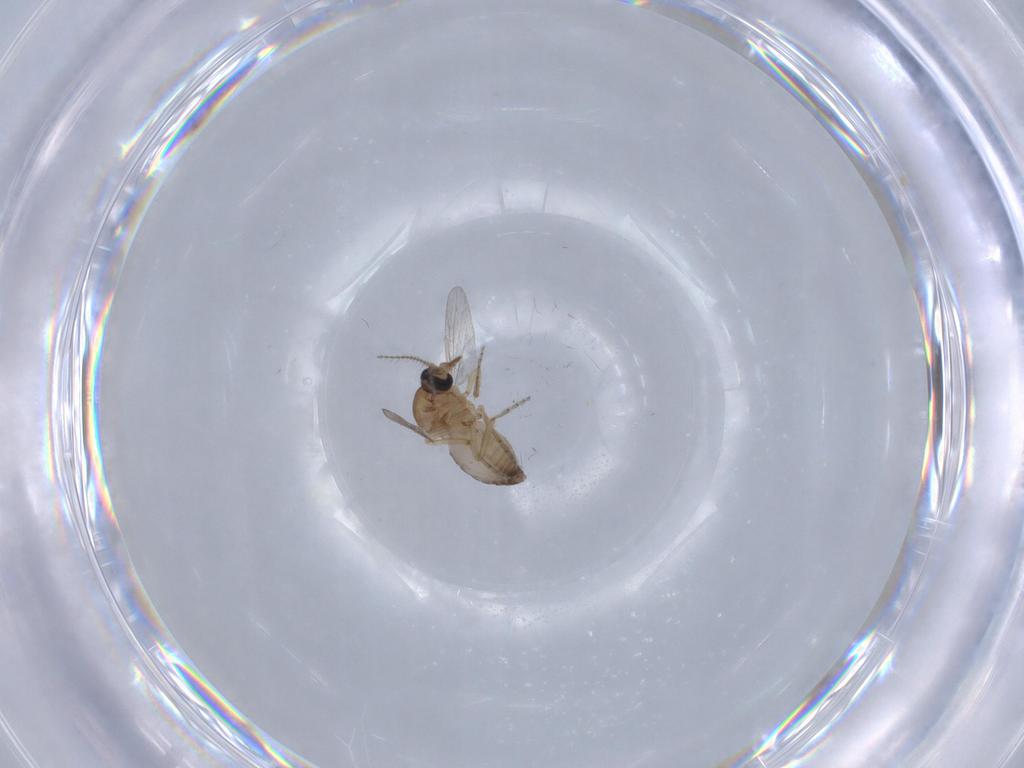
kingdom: Animalia
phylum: Arthropoda
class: Insecta
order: Diptera
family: Ceratopogonidae
